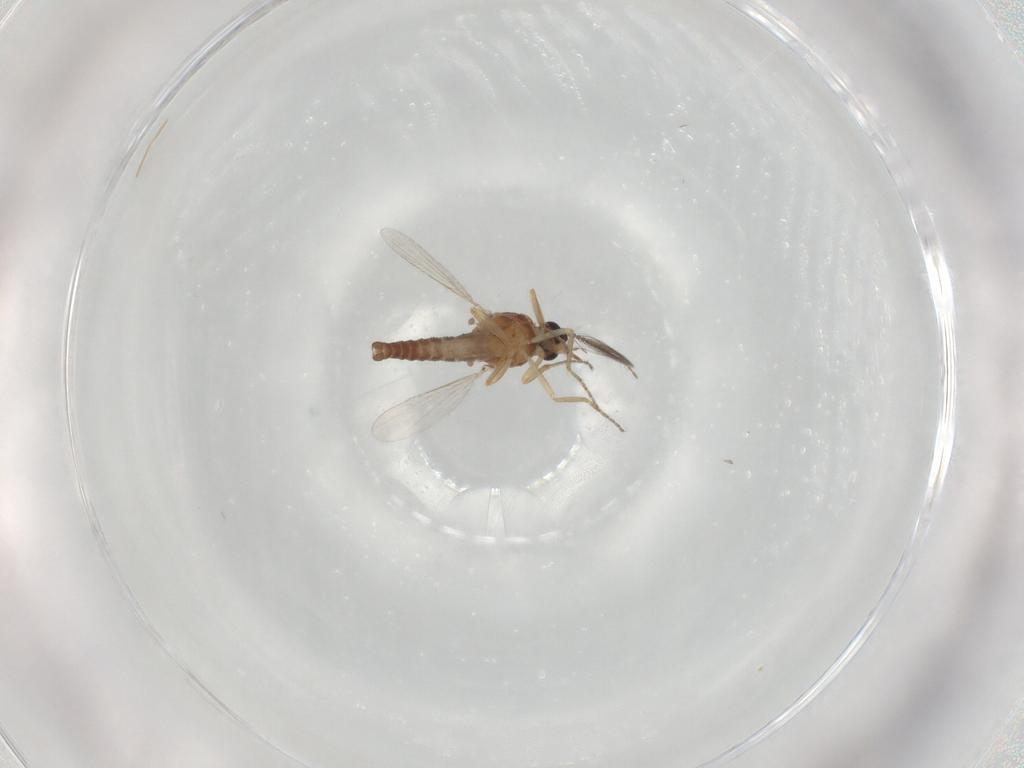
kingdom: Animalia
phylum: Arthropoda
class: Insecta
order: Diptera
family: Ceratopogonidae
